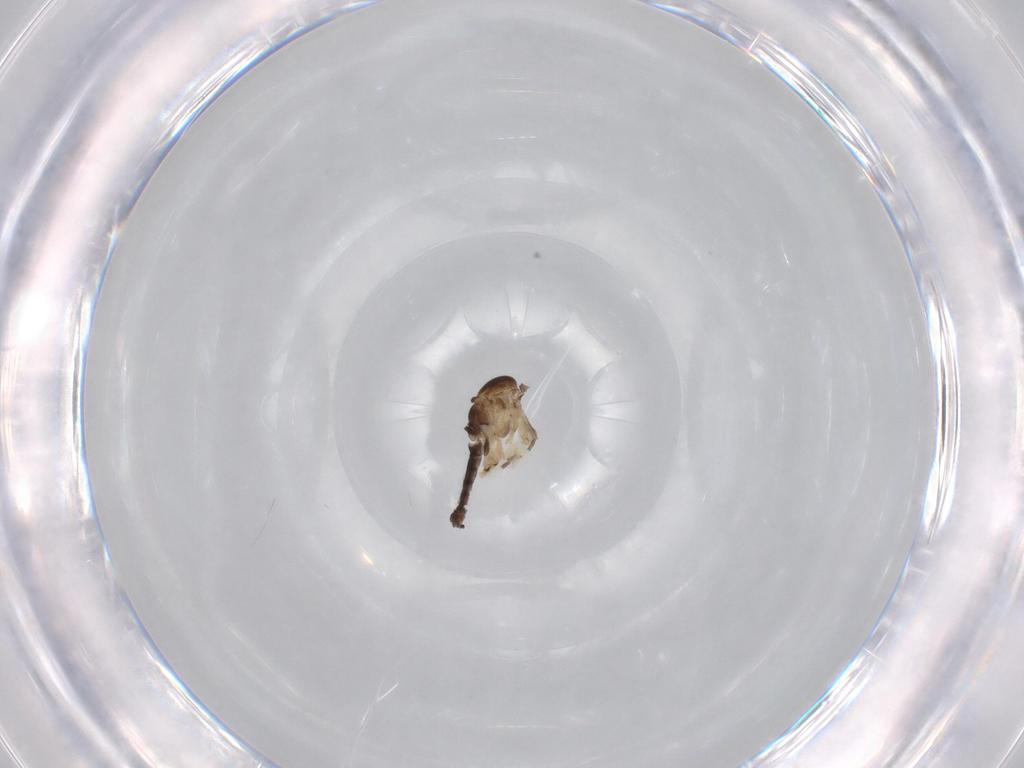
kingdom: Animalia
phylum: Arthropoda
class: Insecta
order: Diptera
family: Sciaridae
